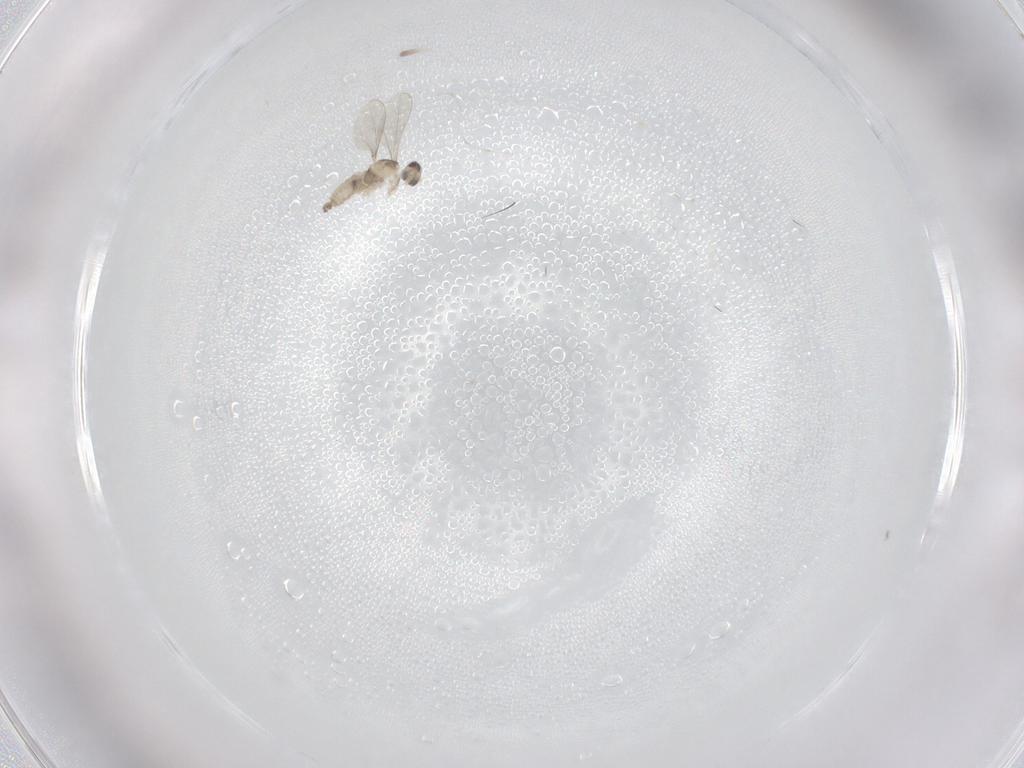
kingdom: Animalia
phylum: Arthropoda
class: Insecta
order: Diptera
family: Cecidomyiidae
